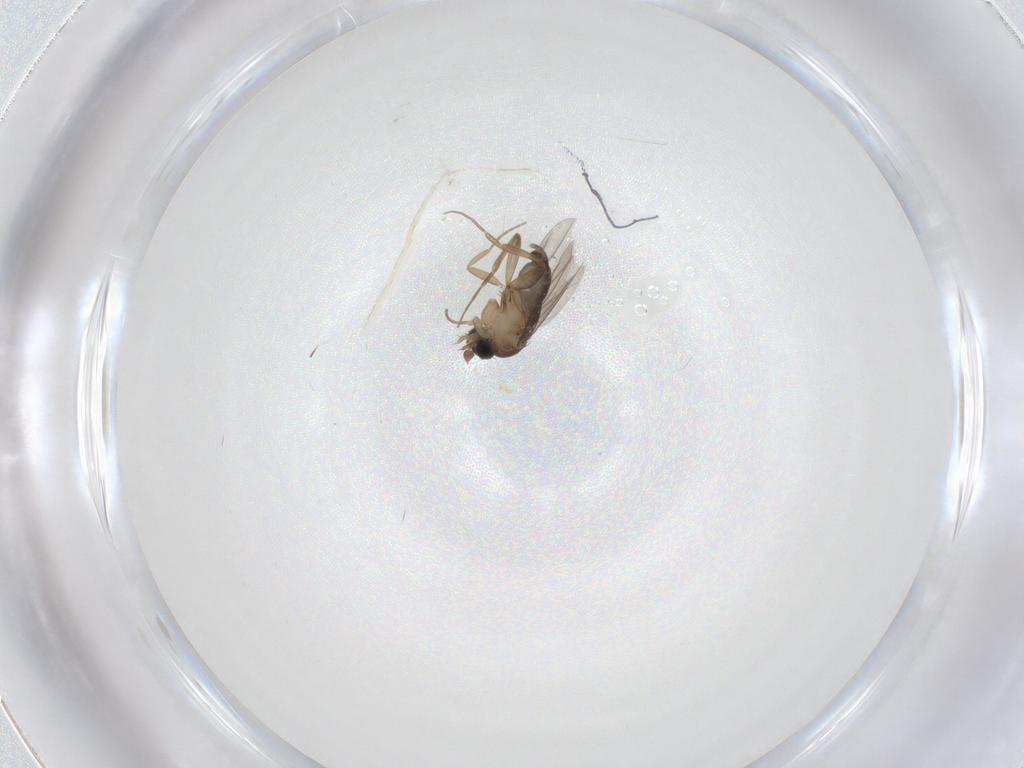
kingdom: Animalia
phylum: Arthropoda
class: Insecta
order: Diptera
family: Phoridae
